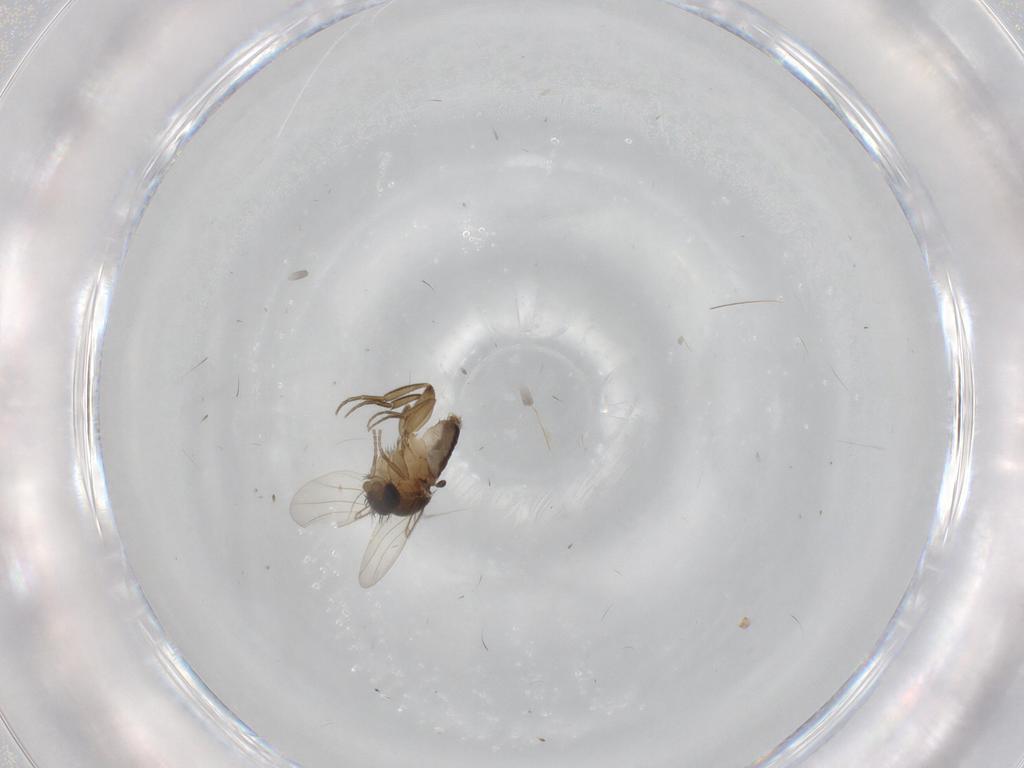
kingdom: Animalia
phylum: Arthropoda
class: Insecta
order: Diptera
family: Phoridae
